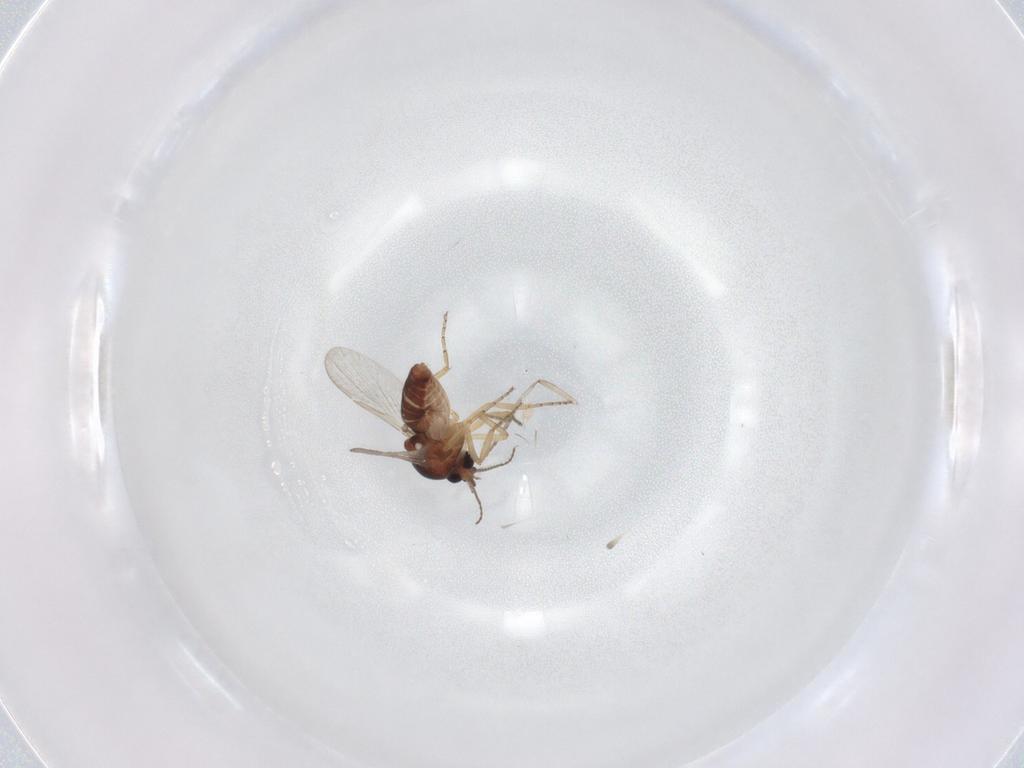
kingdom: Animalia
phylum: Arthropoda
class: Insecta
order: Diptera
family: Ceratopogonidae
